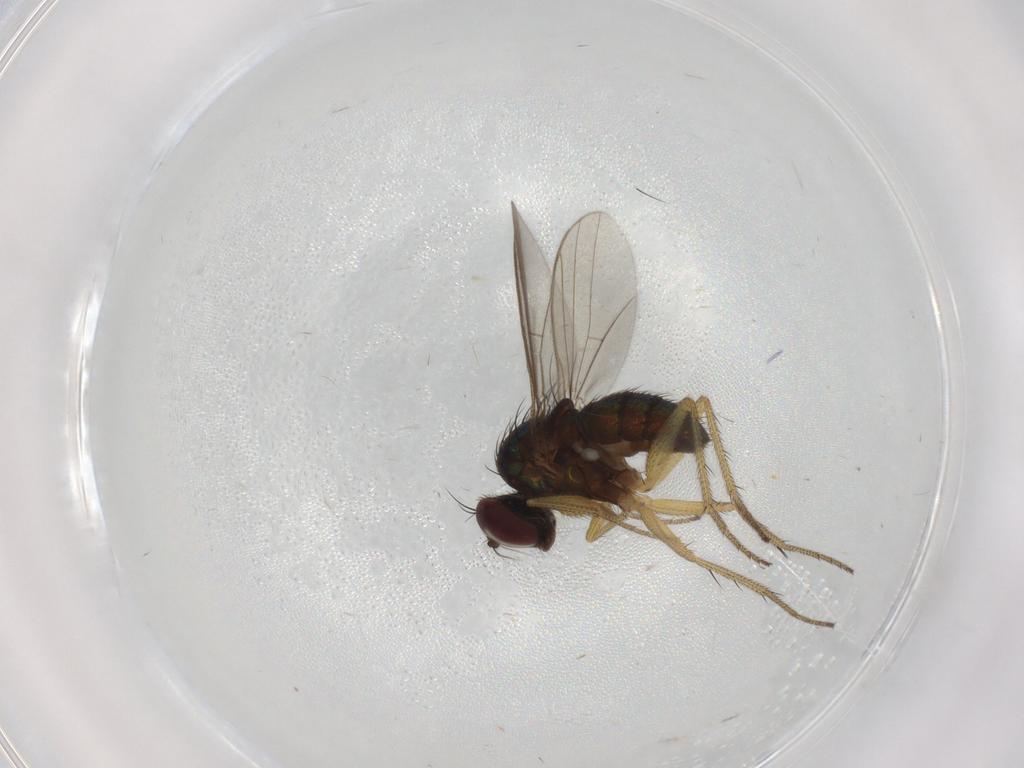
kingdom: Animalia
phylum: Arthropoda
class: Insecta
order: Diptera
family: Dolichopodidae
